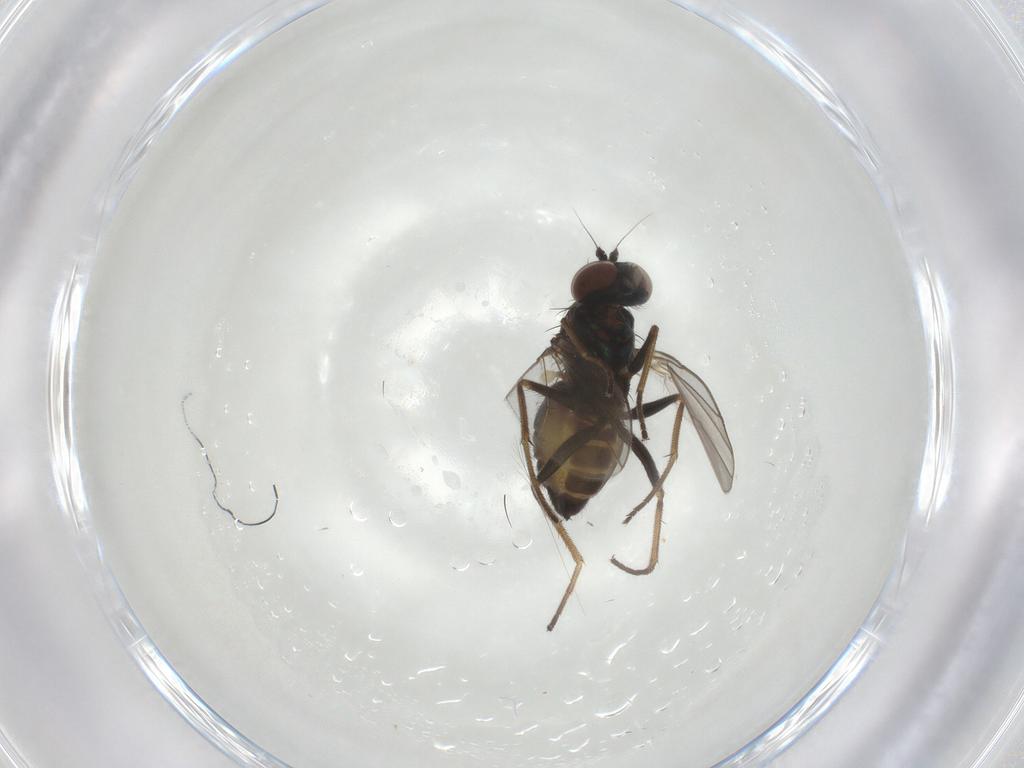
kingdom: Animalia
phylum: Arthropoda
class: Insecta
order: Diptera
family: Dolichopodidae
